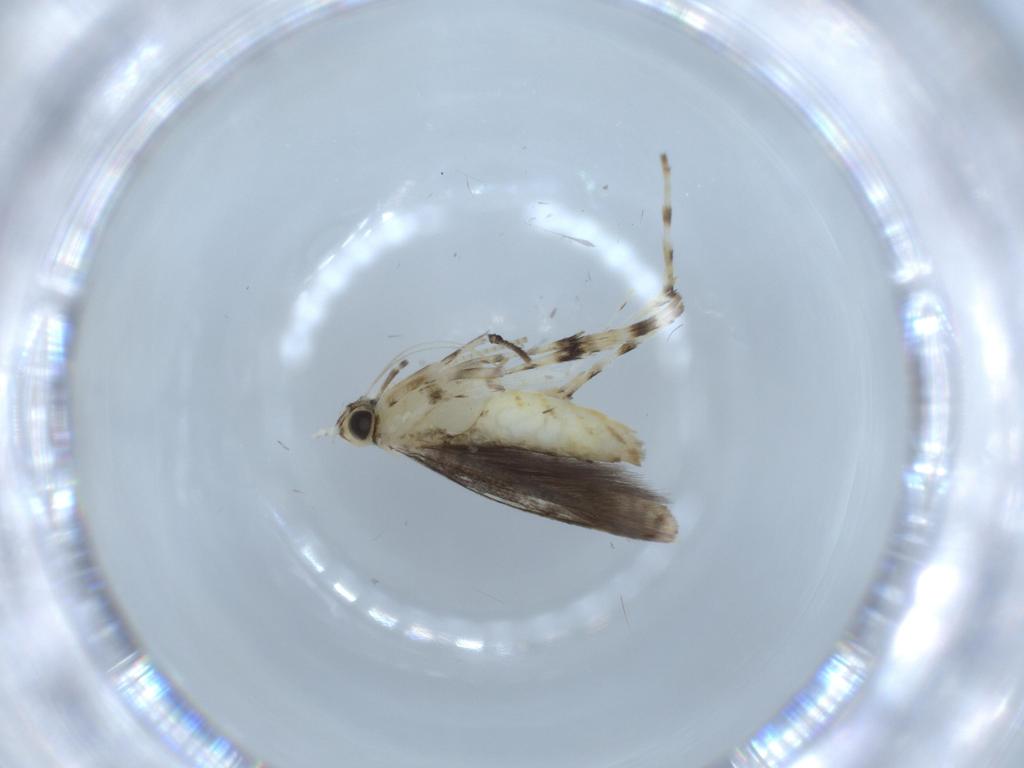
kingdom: Animalia
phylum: Arthropoda
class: Insecta
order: Lepidoptera
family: Gracillariidae
